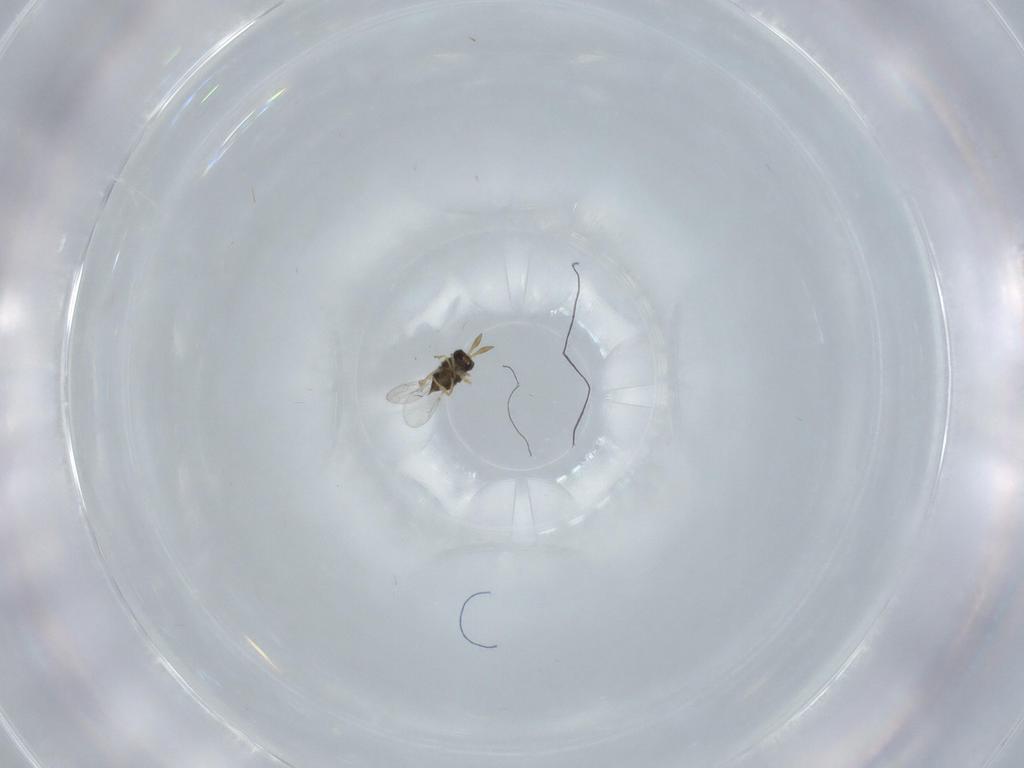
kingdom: Animalia
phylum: Arthropoda
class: Insecta
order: Hymenoptera
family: Encyrtidae
